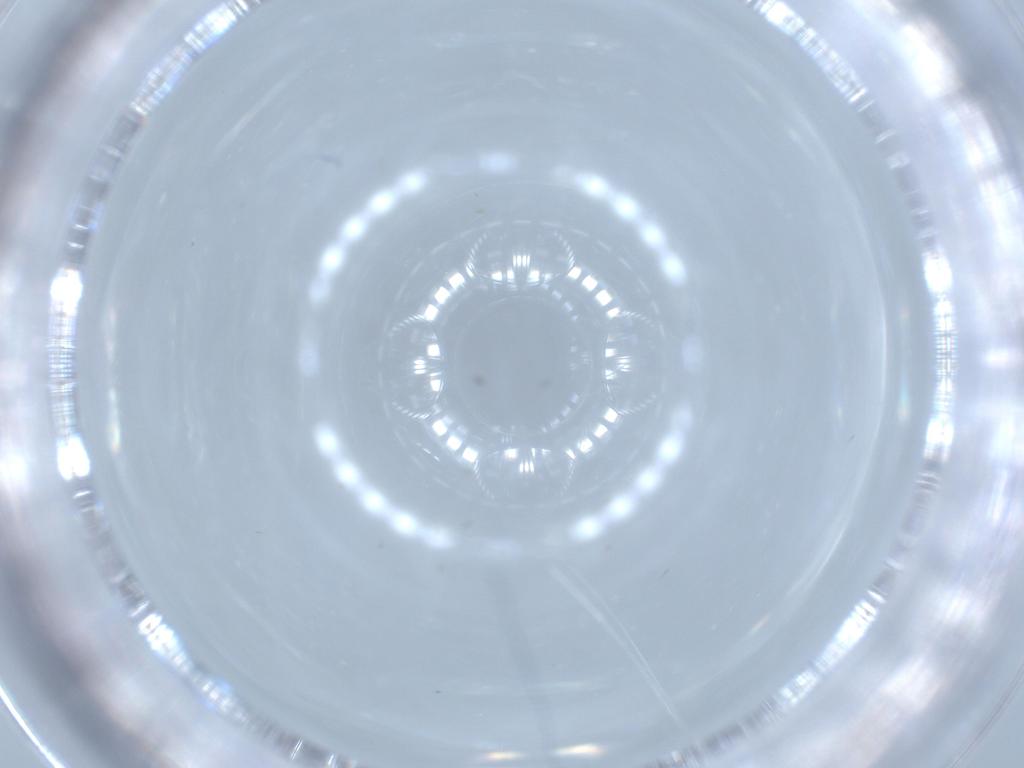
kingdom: Animalia
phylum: Arthropoda
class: Insecta
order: Diptera
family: Cecidomyiidae
